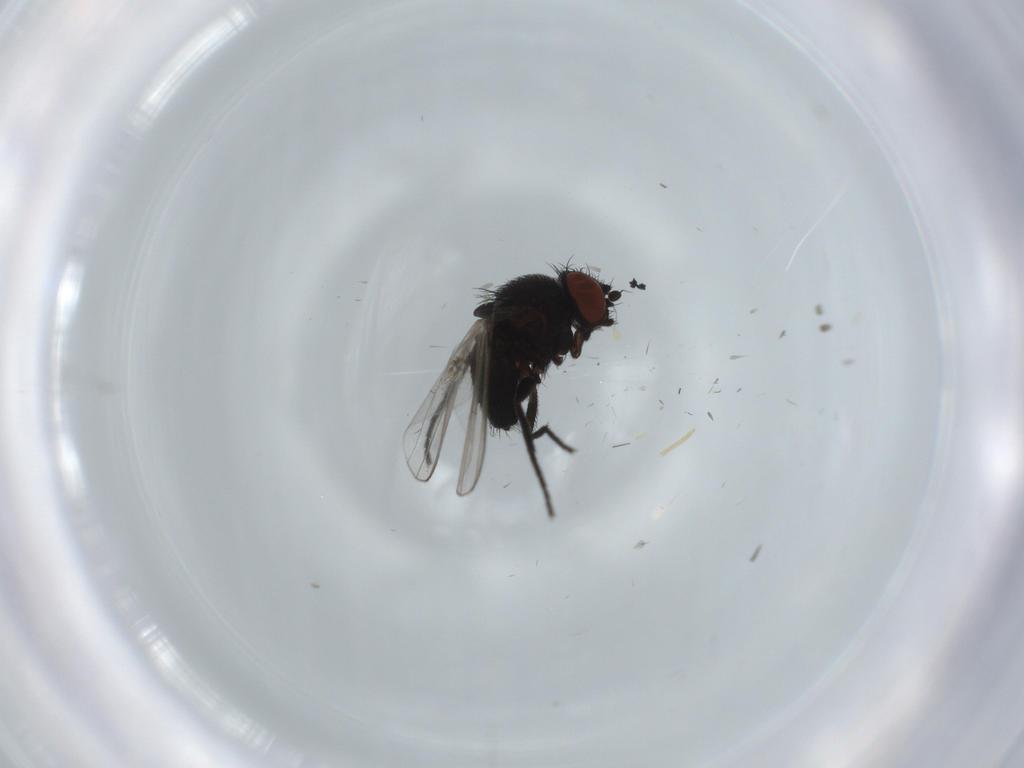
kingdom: Animalia
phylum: Arthropoda
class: Insecta
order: Diptera
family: Milichiidae
